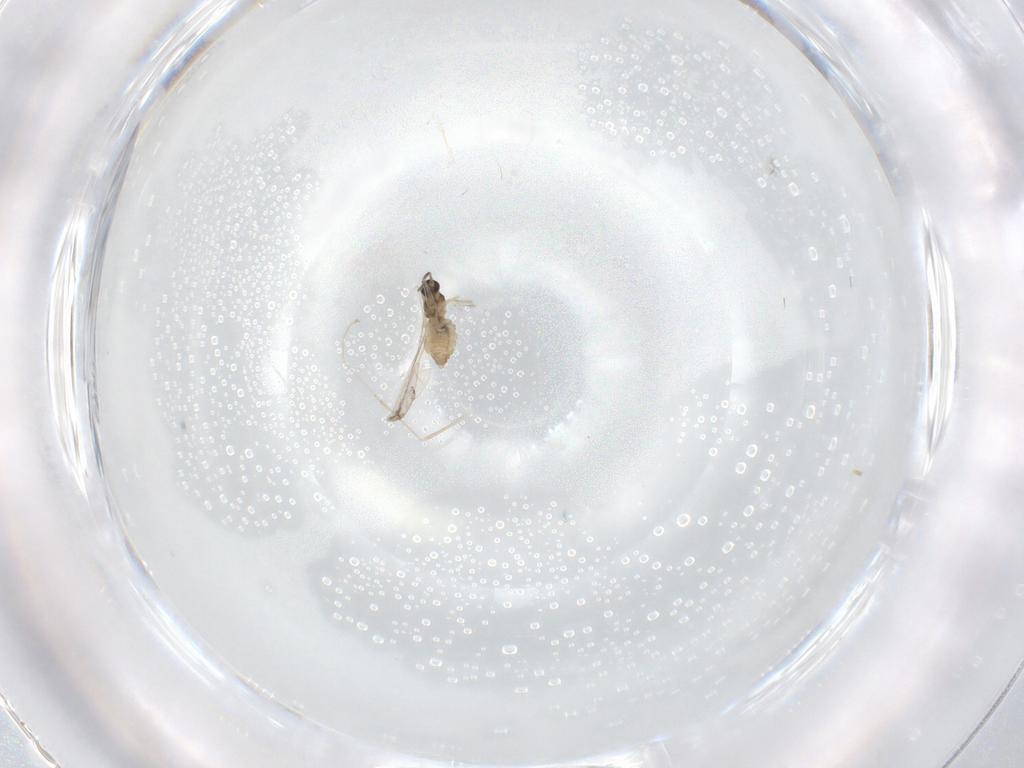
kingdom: Animalia
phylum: Arthropoda
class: Insecta
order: Diptera
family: Cecidomyiidae
